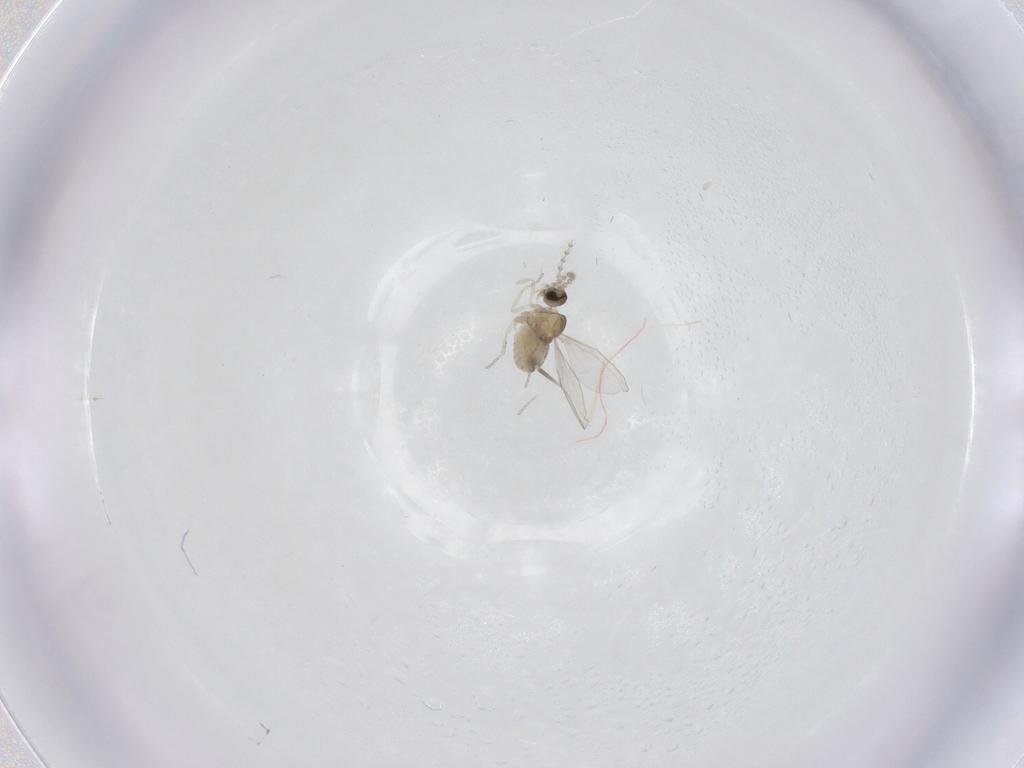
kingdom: Animalia
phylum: Arthropoda
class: Insecta
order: Diptera
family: Cecidomyiidae
